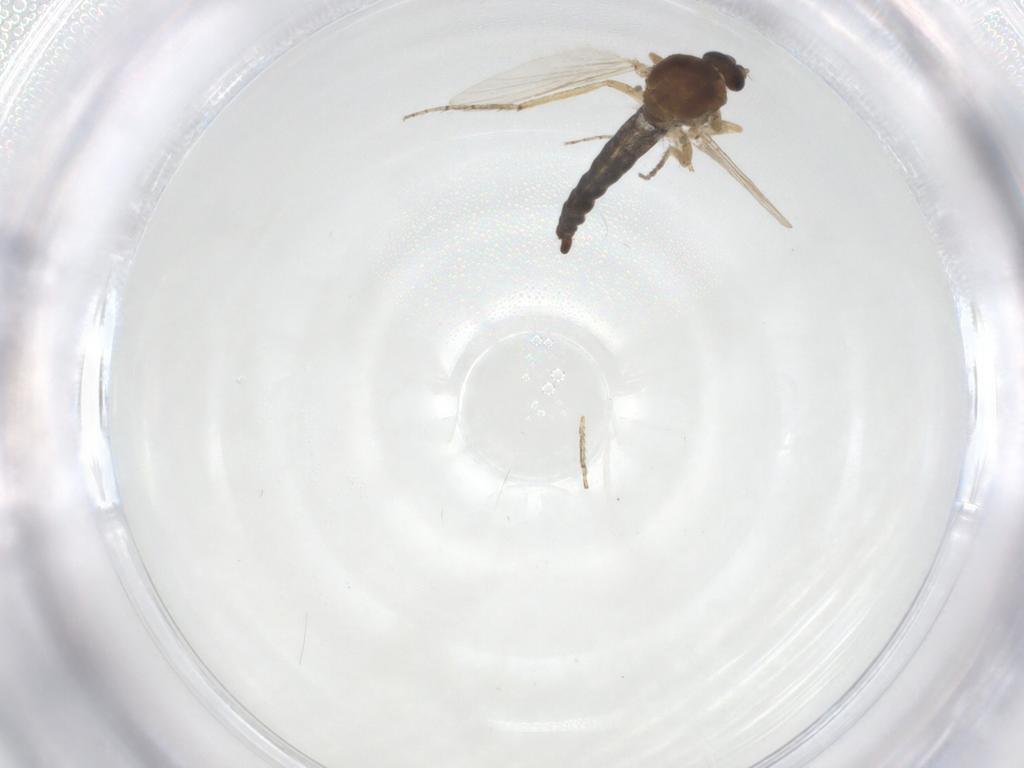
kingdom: Animalia
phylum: Arthropoda
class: Insecta
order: Diptera
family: Ceratopogonidae
